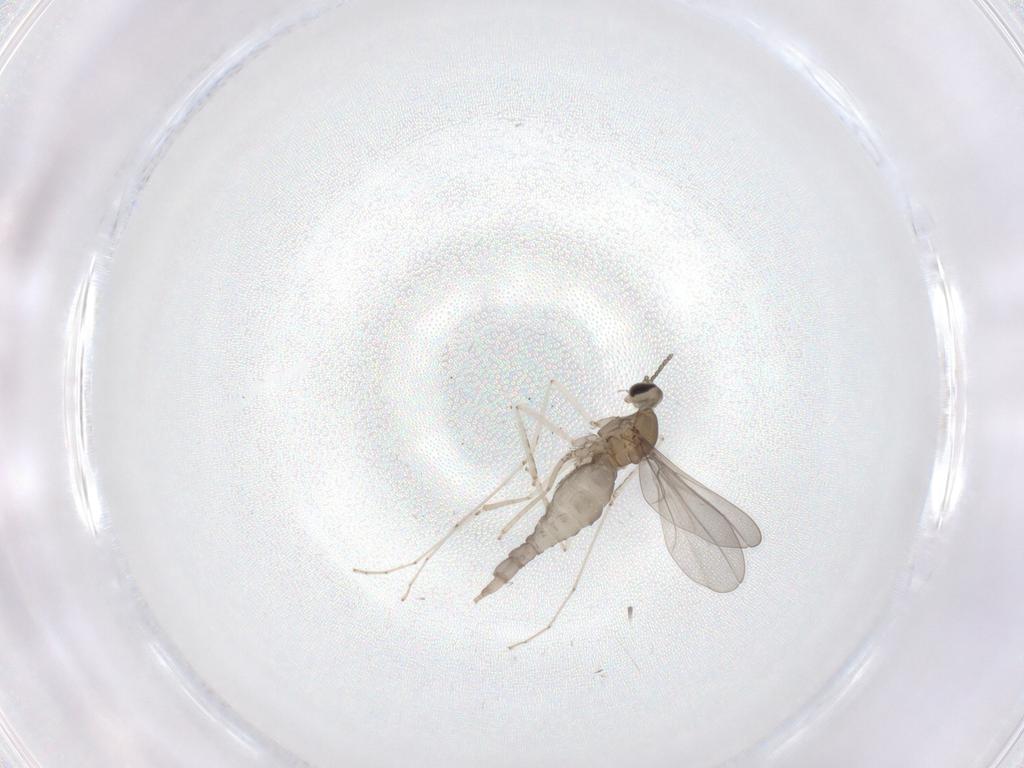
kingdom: Animalia
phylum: Arthropoda
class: Insecta
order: Diptera
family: Cecidomyiidae
